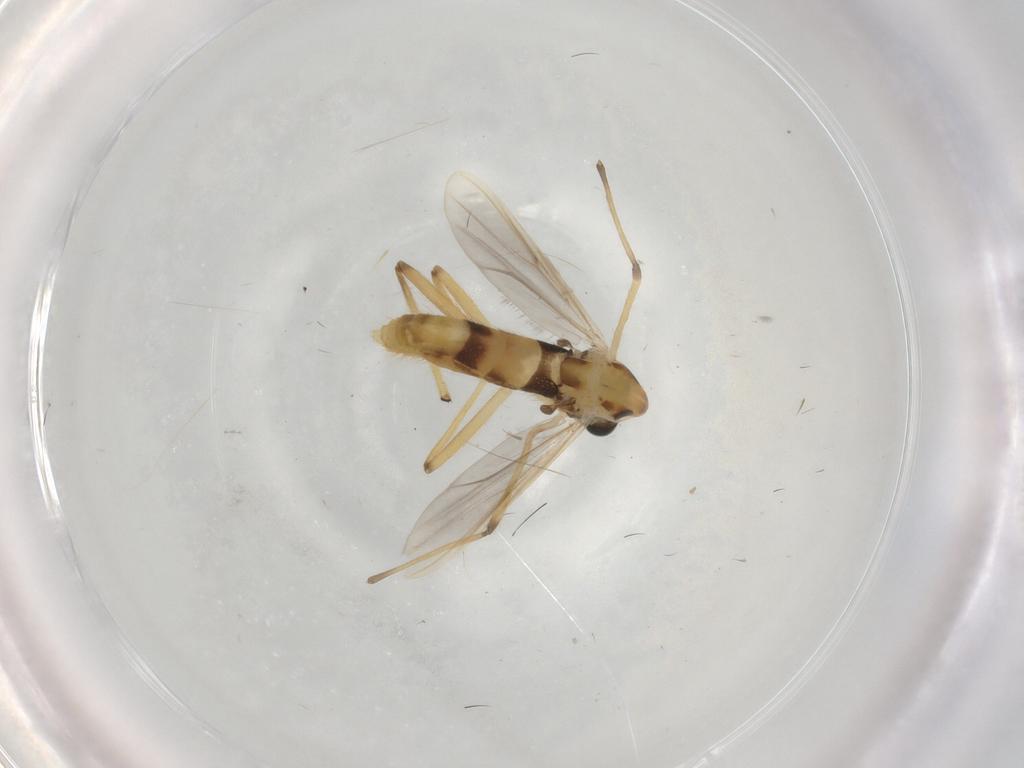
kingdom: Animalia
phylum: Arthropoda
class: Insecta
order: Diptera
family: Chironomidae
